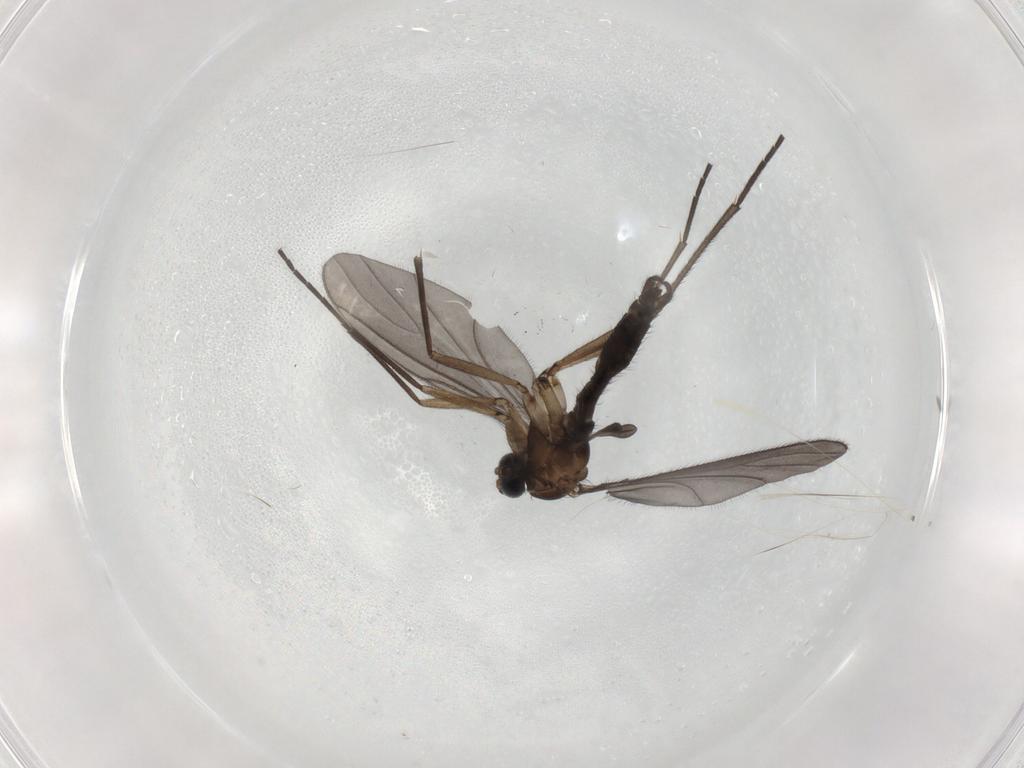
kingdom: Animalia
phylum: Arthropoda
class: Insecta
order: Diptera
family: Sciaridae
